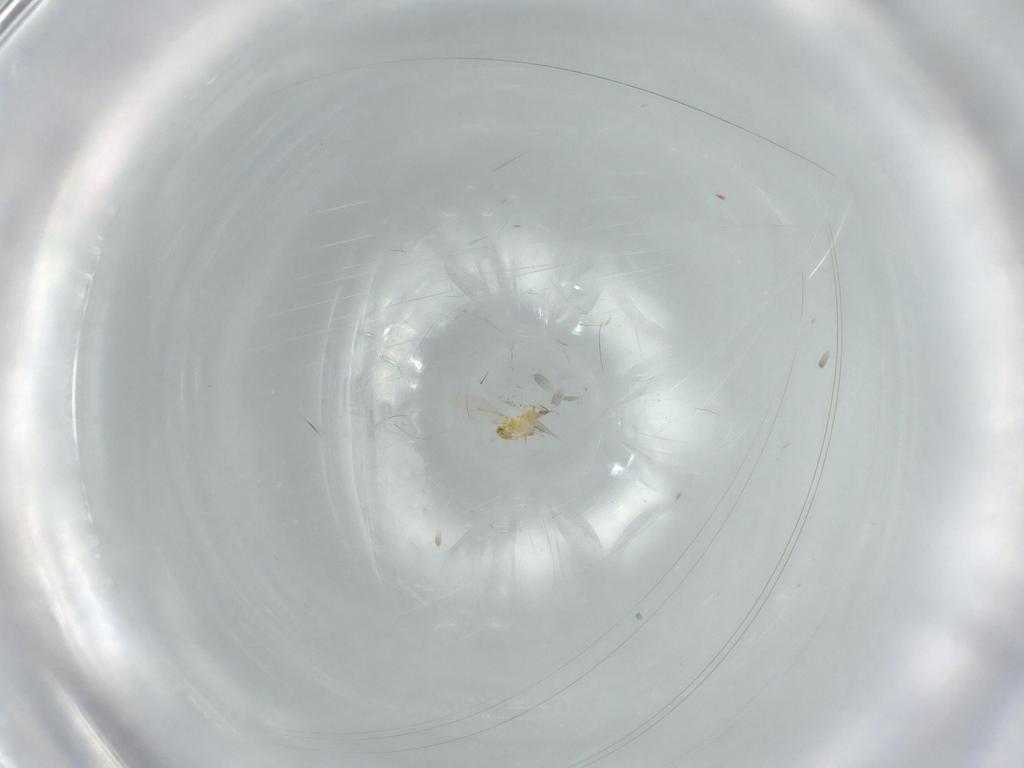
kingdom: Animalia
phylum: Arthropoda
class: Insecta
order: Hymenoptera
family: Aphelinidae
